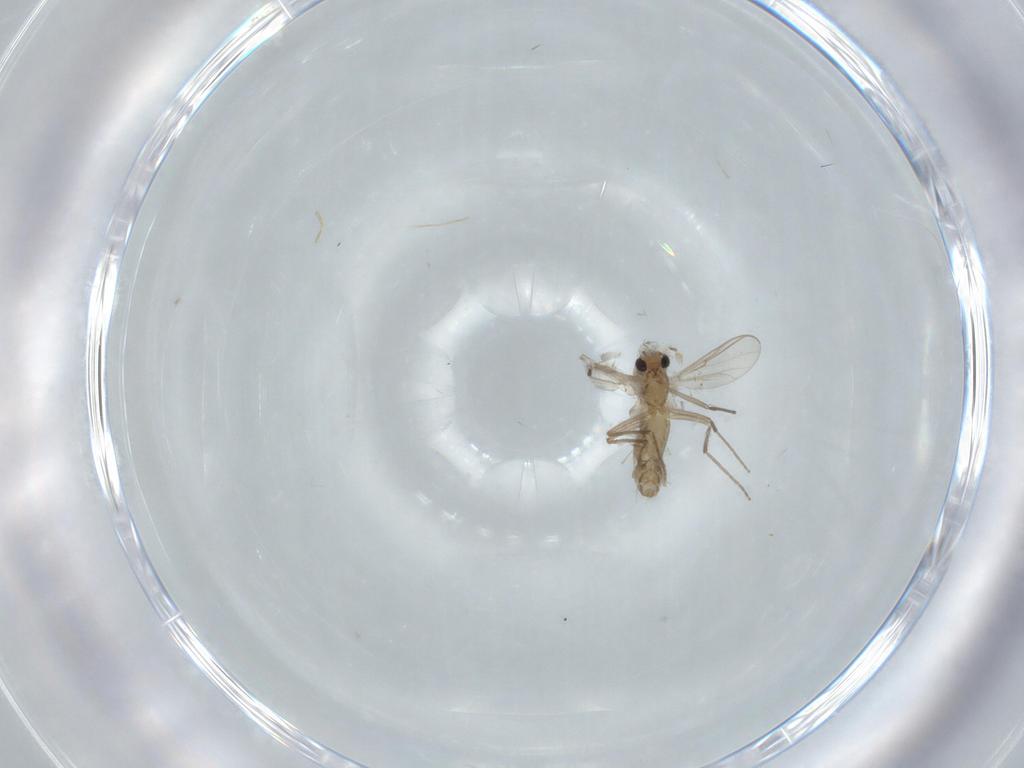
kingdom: Animalia
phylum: Arthropoda
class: Insecta
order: Diptera
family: Chironomidae
